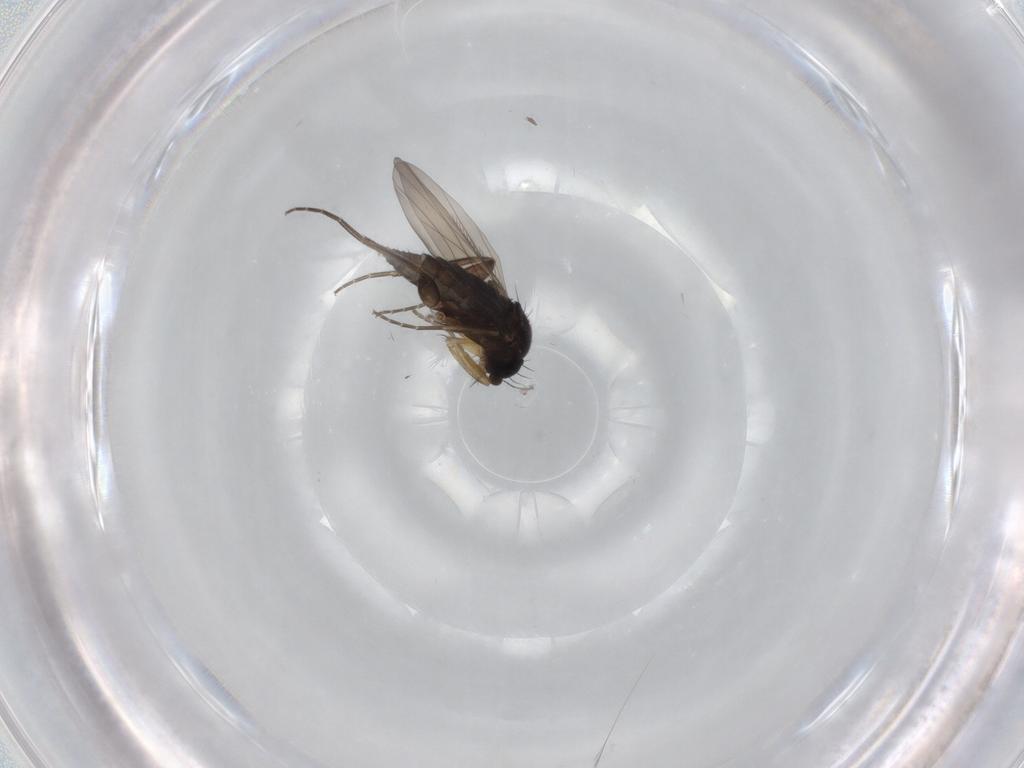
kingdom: Animalia
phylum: Arthropoda
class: Insecta
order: Diptera
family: Phoridae
